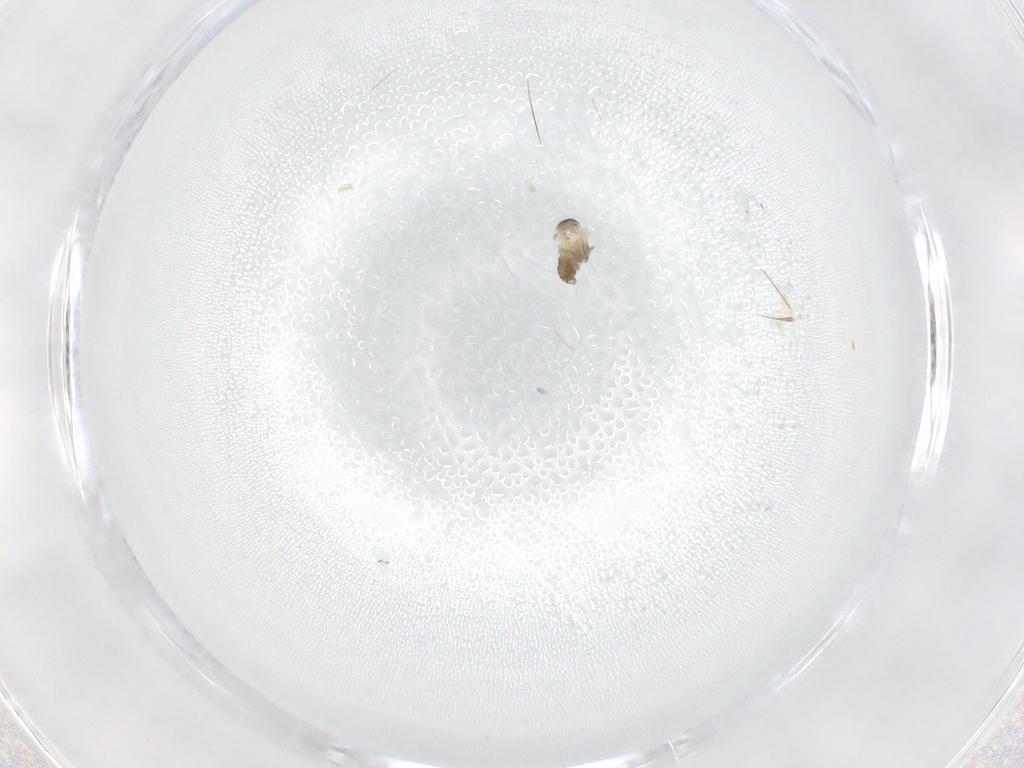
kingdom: Animalia
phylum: Arthropoda
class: Insecta
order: Diptera
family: Cecidomyiidae
